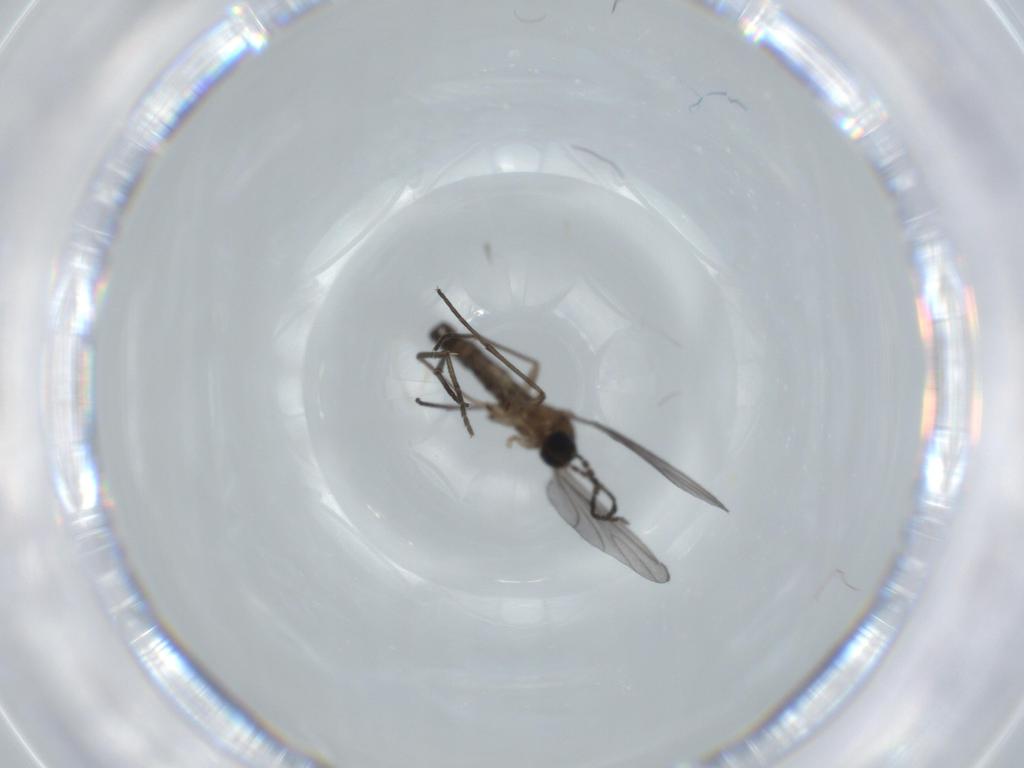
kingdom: Animalia
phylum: Arthropoda
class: Insecta
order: Diptera
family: Sciaridae
